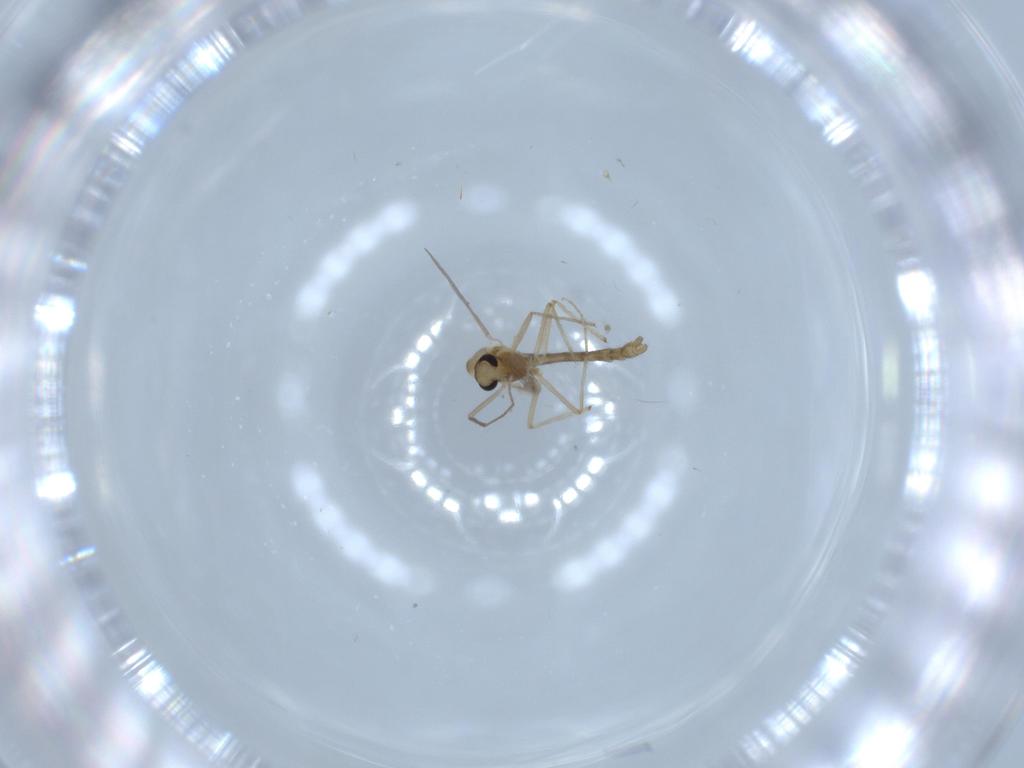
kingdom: Animalia
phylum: Arthropoda
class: Insecta
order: Diptera
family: Chironomidae
